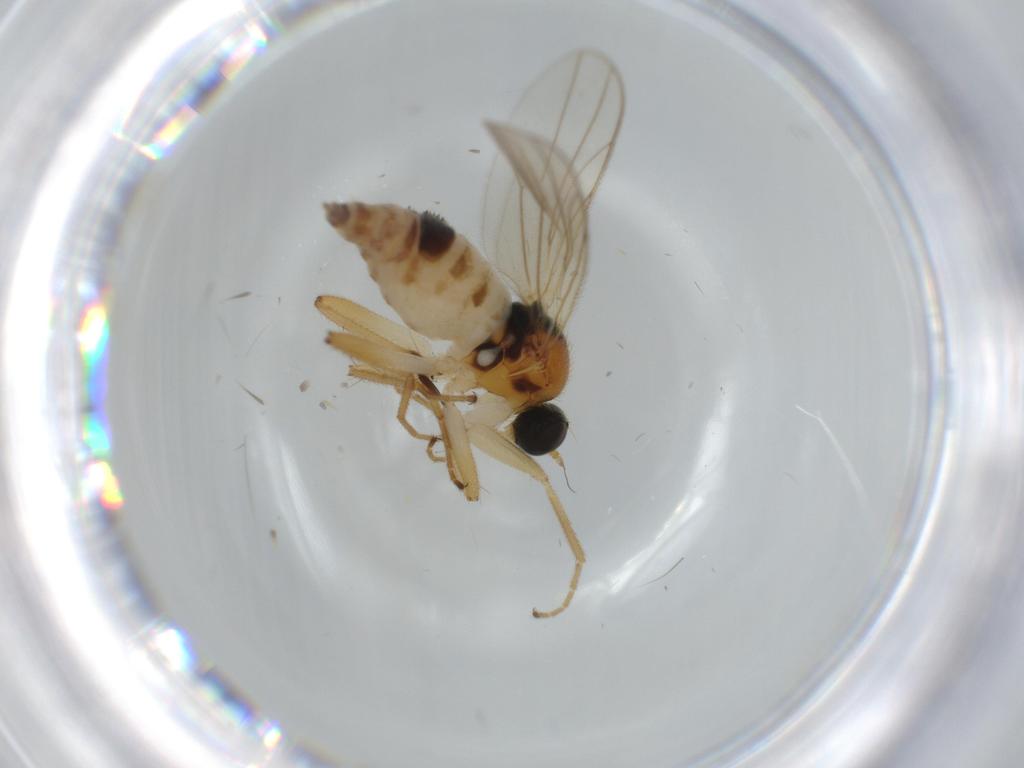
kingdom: Animalia
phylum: Arthropoda
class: Insecta
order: Diptera
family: Hybotidae
